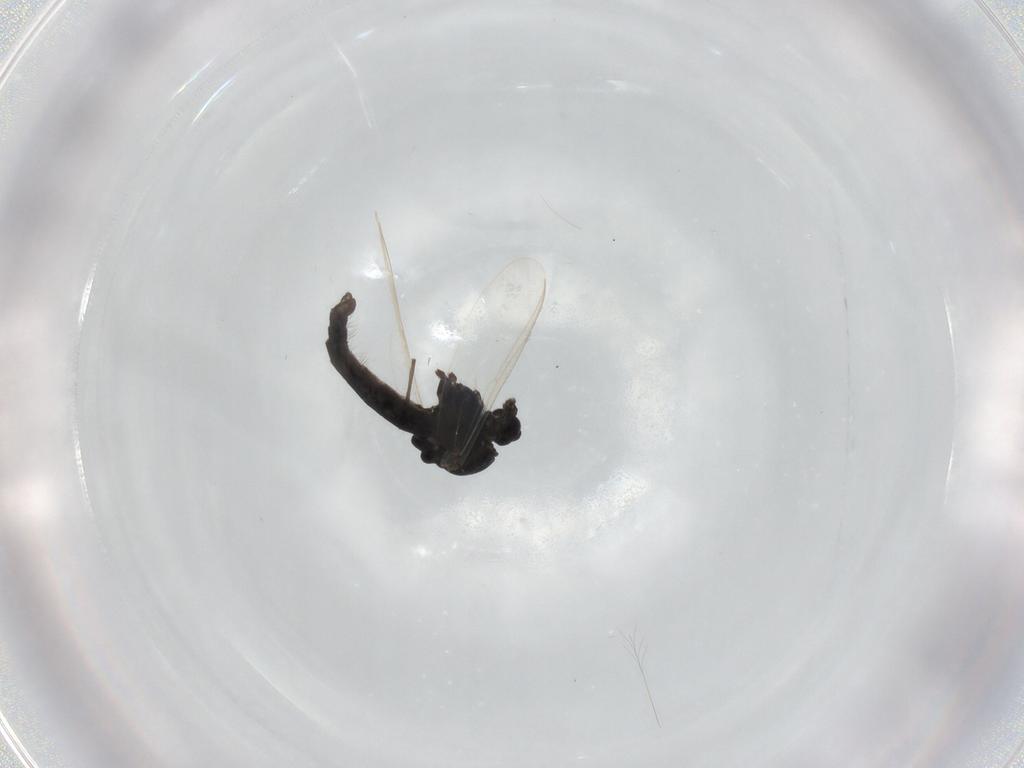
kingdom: Animalia
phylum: Arthropoda
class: Insecta
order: Diptera
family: Chironomidae
